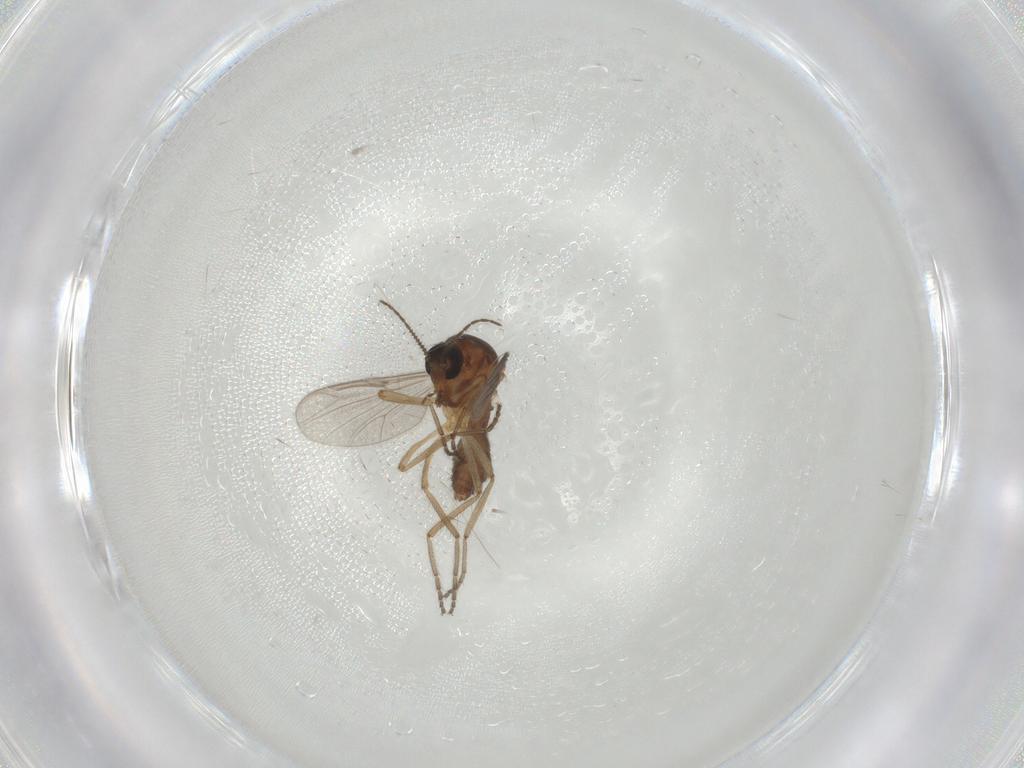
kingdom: Animalia
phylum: Arthropoda
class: Insecta
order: Diptera
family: Ceratopogonidae
